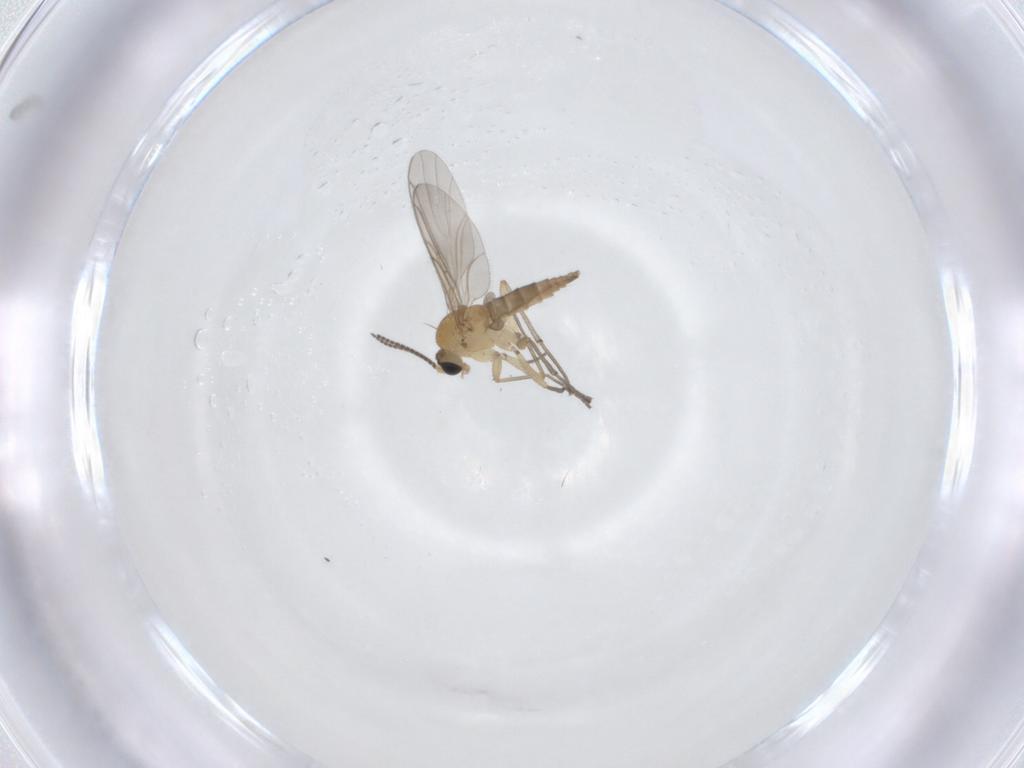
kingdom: Animalia
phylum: Arthropoda
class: Insecta
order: Diptera
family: Sciaridae
